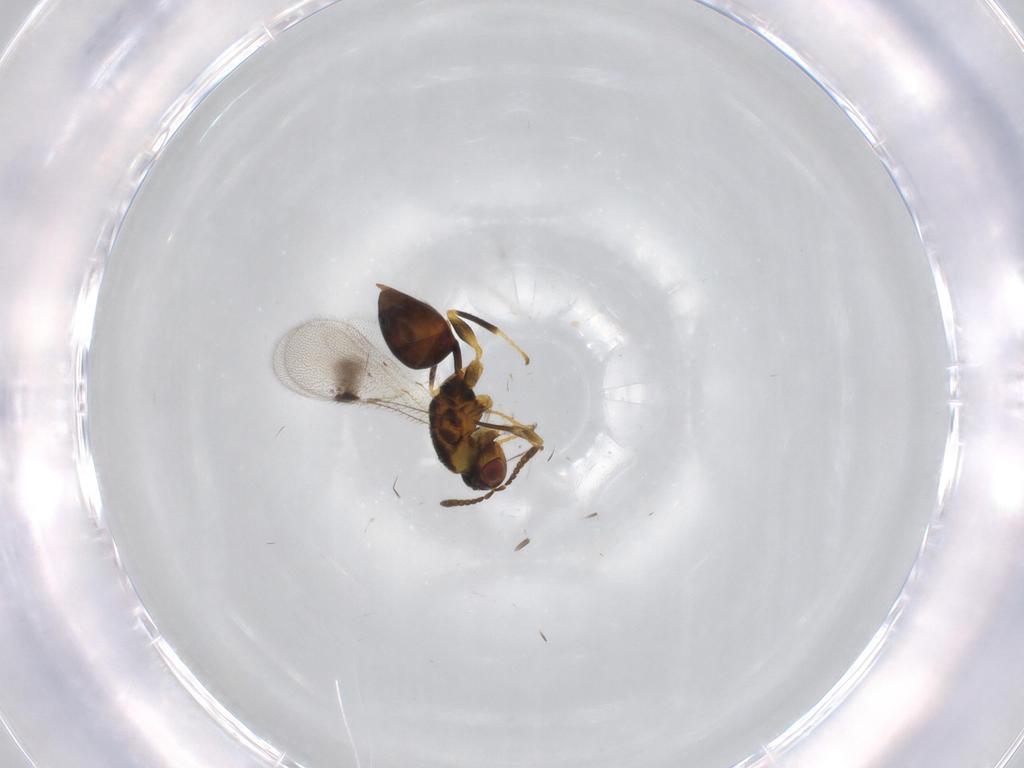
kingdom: Animalia
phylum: Arthropoda
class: Insecta
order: Hymenoptera
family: Eurytomidae
